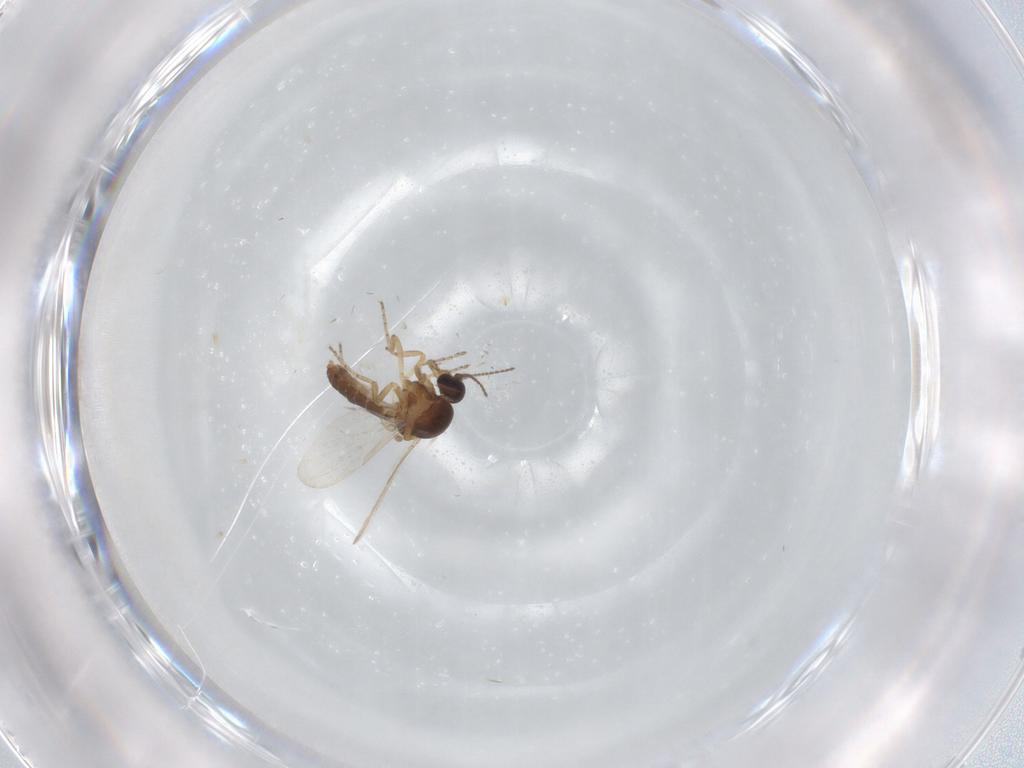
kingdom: Animalia
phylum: Arthropoda
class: Insecta
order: Diptera
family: Ceratopogonidae
